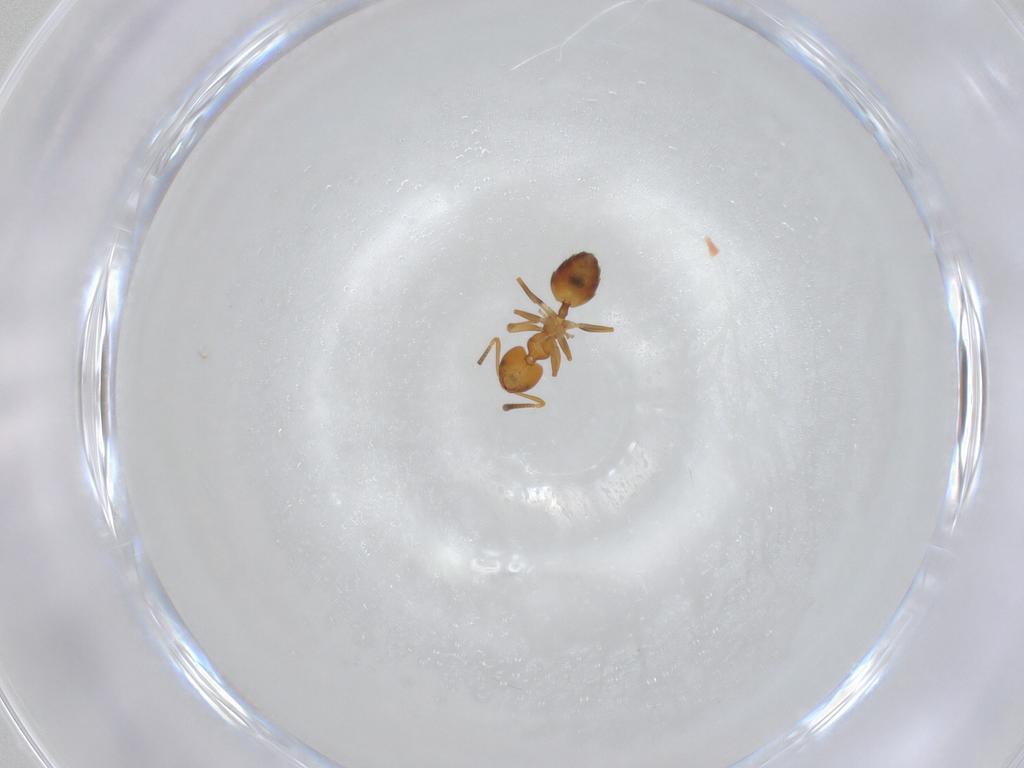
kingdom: Animalia
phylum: Arthropoda
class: Insecta
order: Hymenoptera
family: Formicidae
